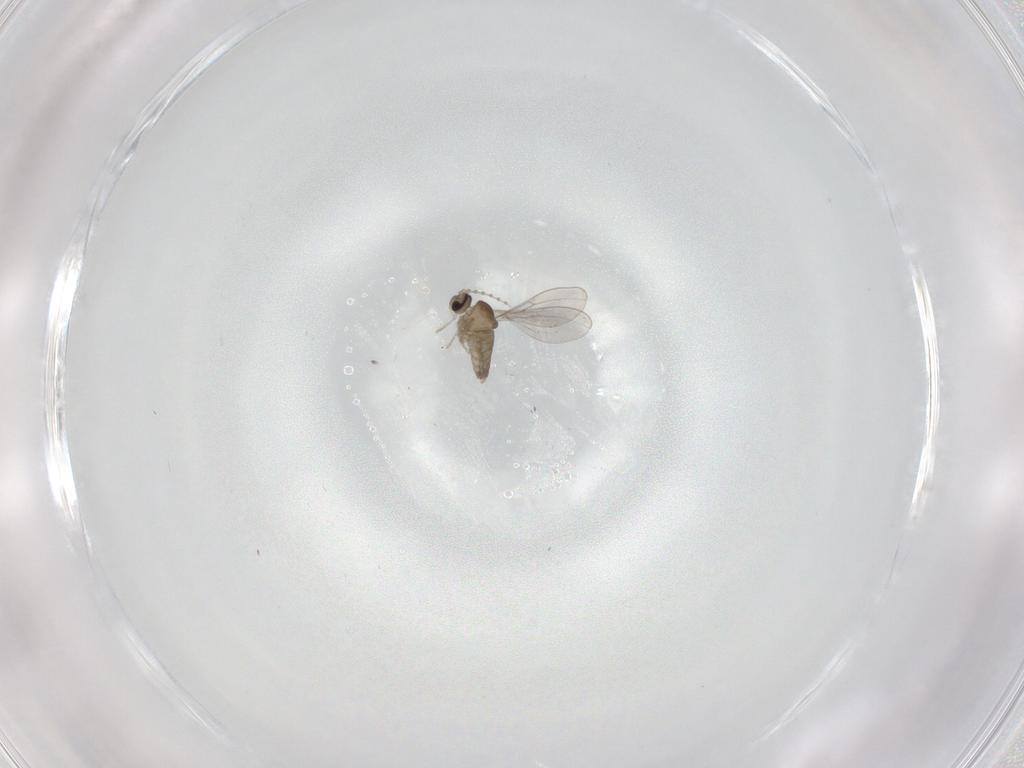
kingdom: Animalia
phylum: Arthropoda
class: Insecta
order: Diptera
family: Cecidomyiidae
